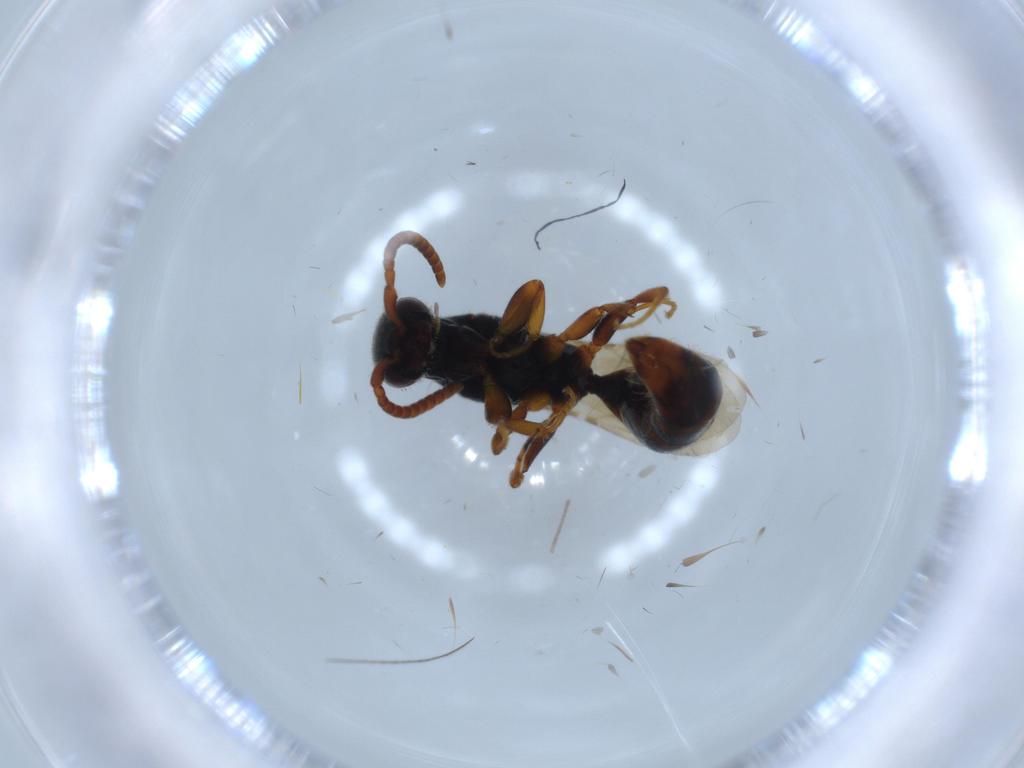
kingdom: Animalia
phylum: Arthropoda
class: Insecta
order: Hymenoptera
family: Bethylidae
